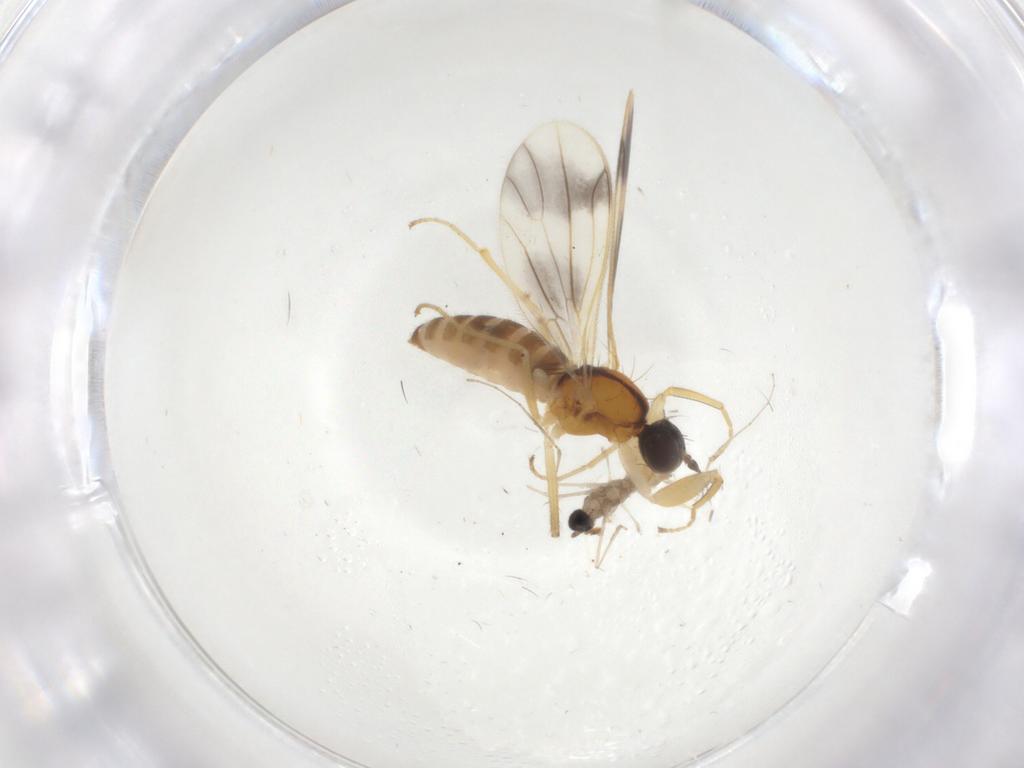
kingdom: Animalia
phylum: Arthropoda
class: Insecta
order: Diptera
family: Cecidomyiidae
